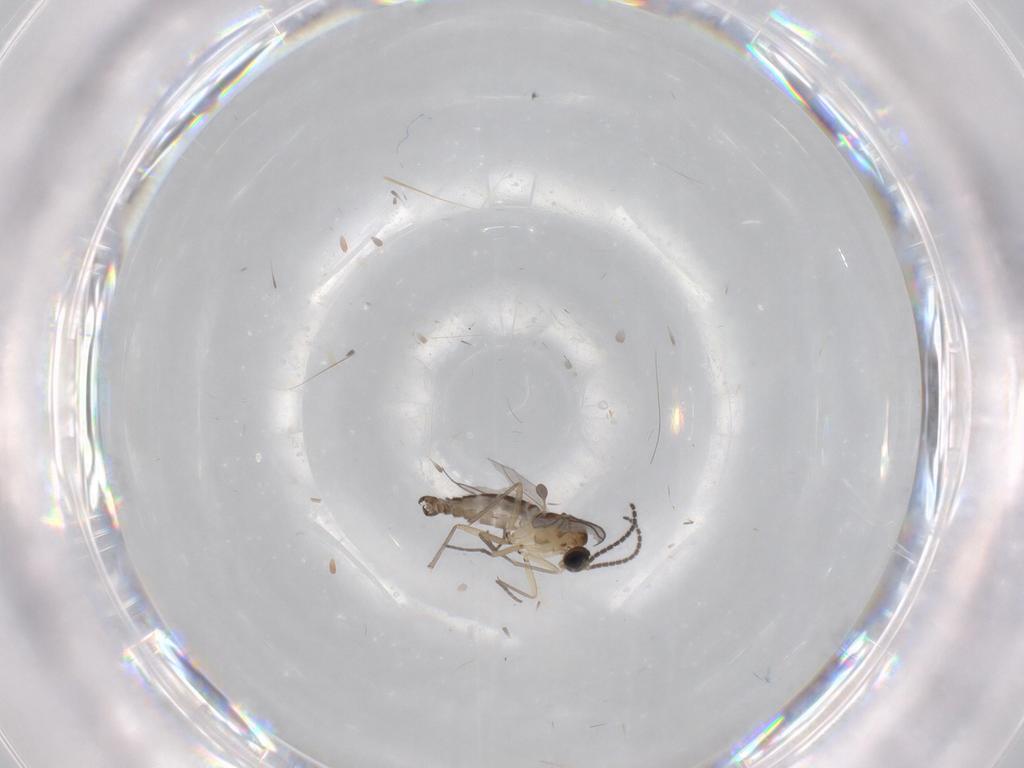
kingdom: Animalia
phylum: Arthropoda
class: Insecta
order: Diptera
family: Sciaridae
